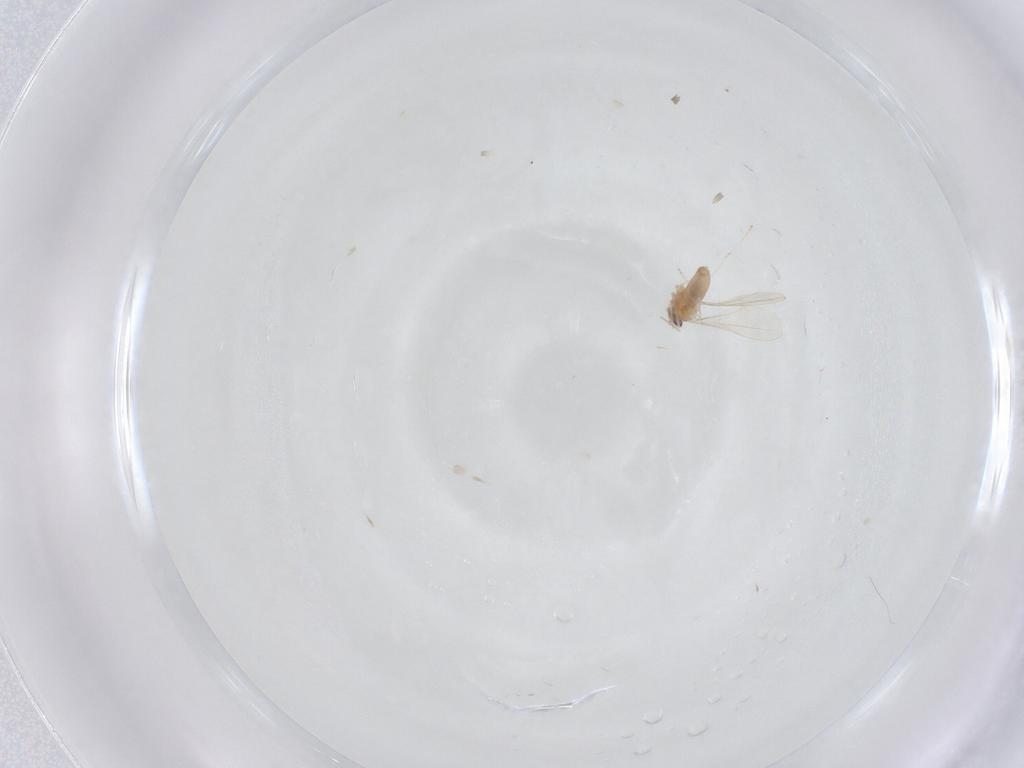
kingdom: Animalia
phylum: Arthropoda
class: Insecta
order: Diptera
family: Cecidomyiidae
